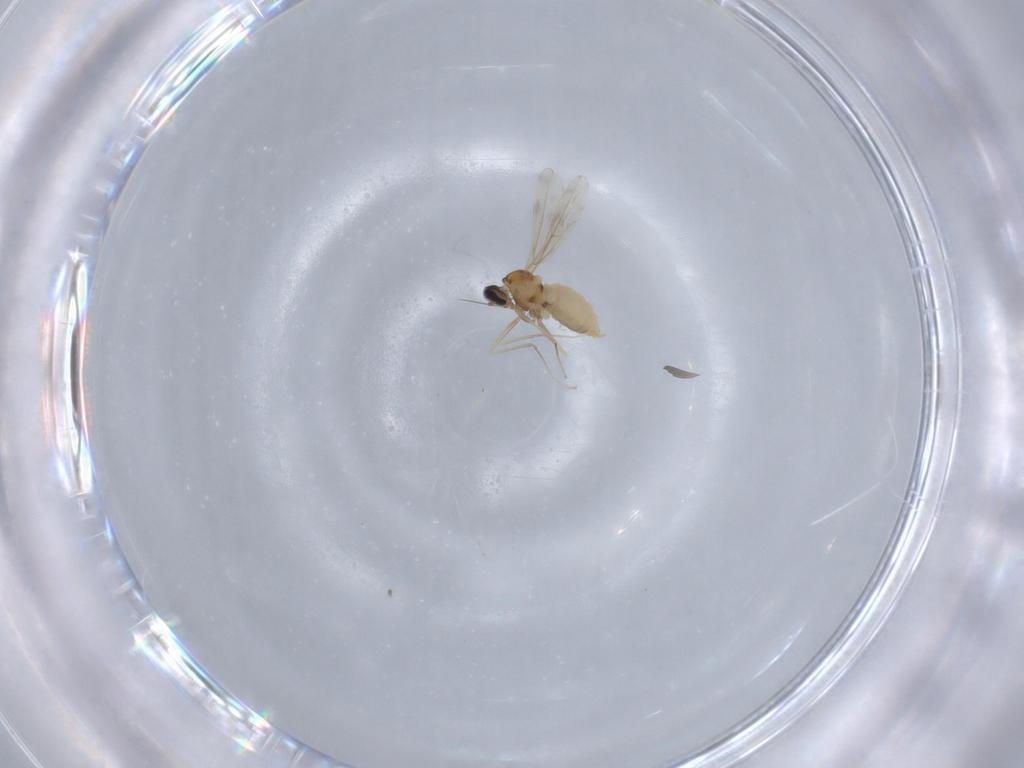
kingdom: Animalia
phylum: Arthropoda
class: Insecta
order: Diptera
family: Cecidomyiidae
